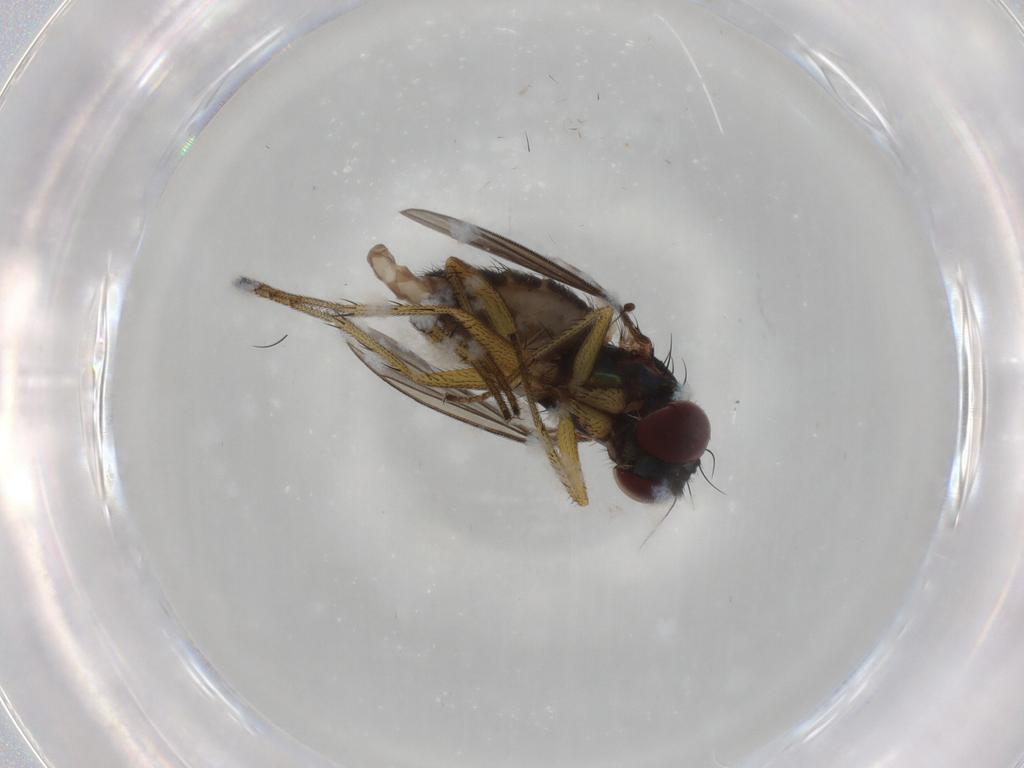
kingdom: Animalia
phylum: Arthropoda
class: Insecta
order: Diptera
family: Dolichopodidae
